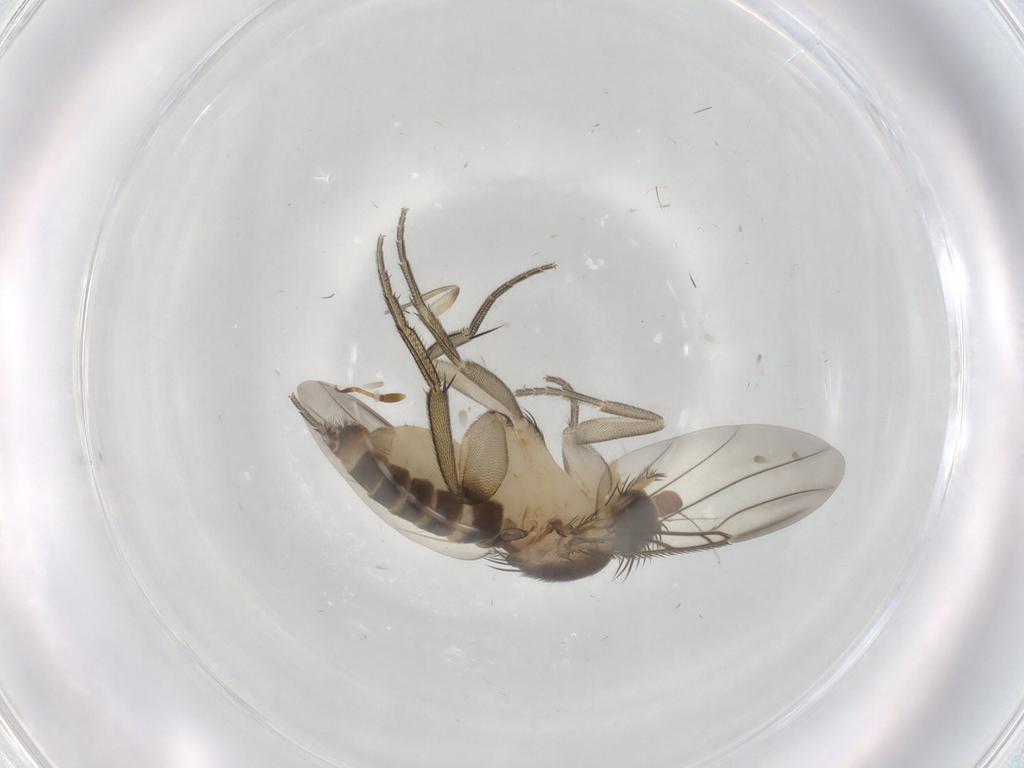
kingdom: Animalia
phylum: Arthropoda
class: Insecta
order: Diptera
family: Phoridae
